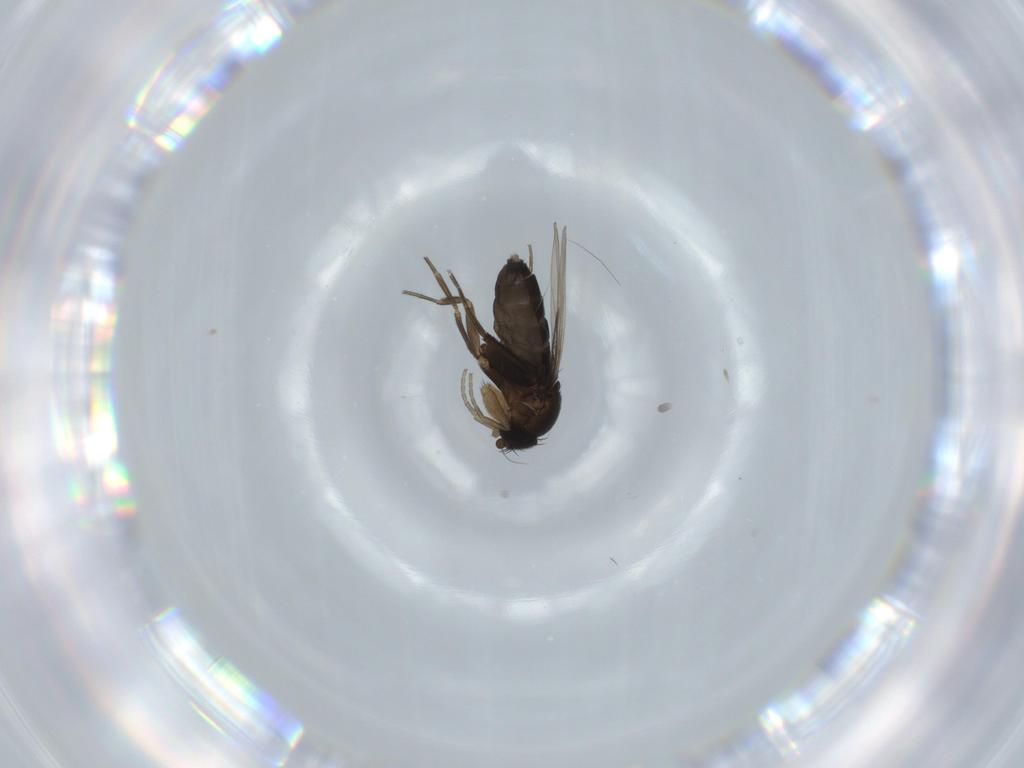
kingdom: Animalia
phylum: Arthropoda
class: Insecta
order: Diptera
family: Phoridae
